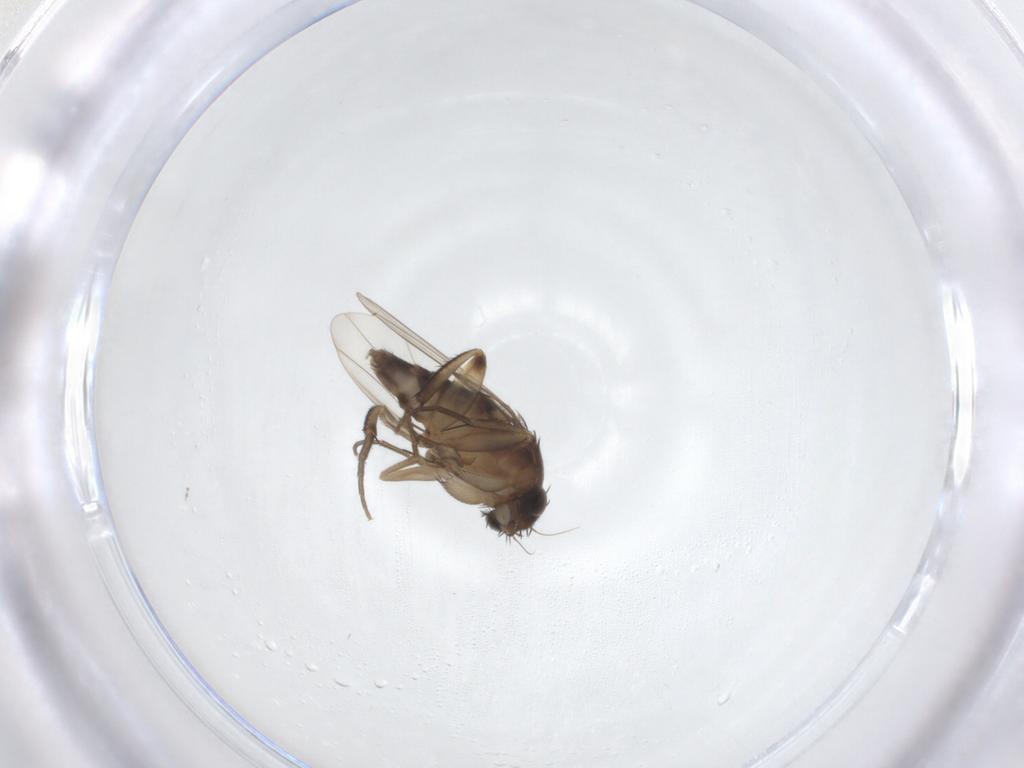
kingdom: Animalia
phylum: Arthropoda
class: Insecta
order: Diptera
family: Phoridae
